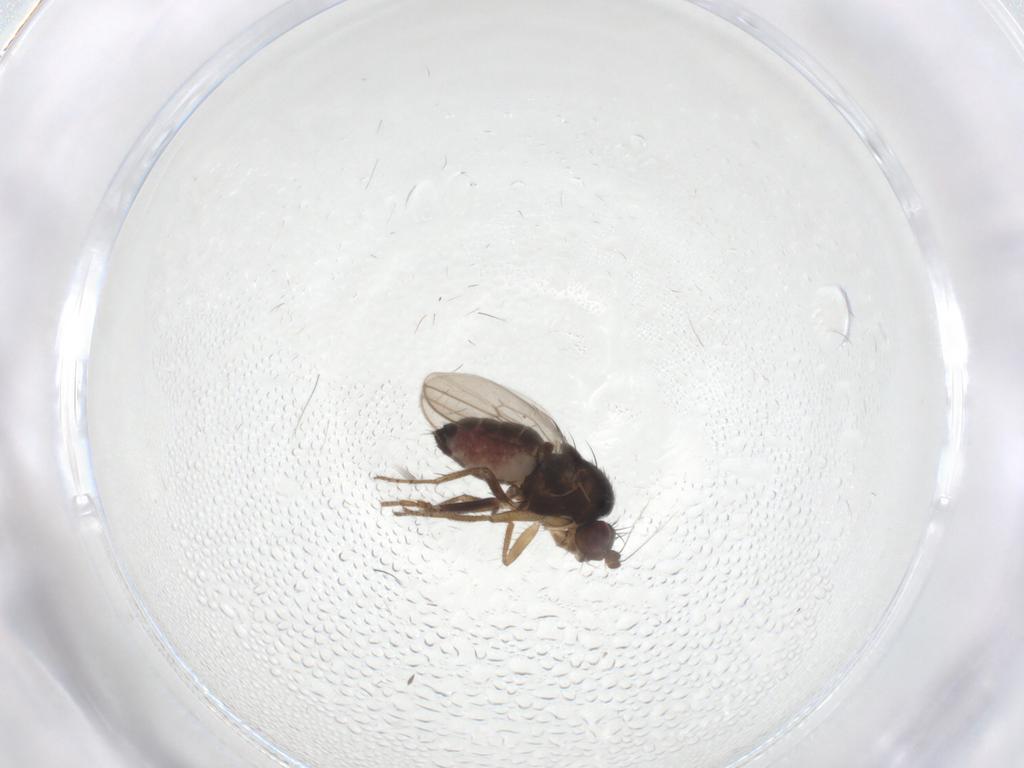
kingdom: Animalia
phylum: Arthropoda
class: Insecta
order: Diptera
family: Sphaeroceridae
